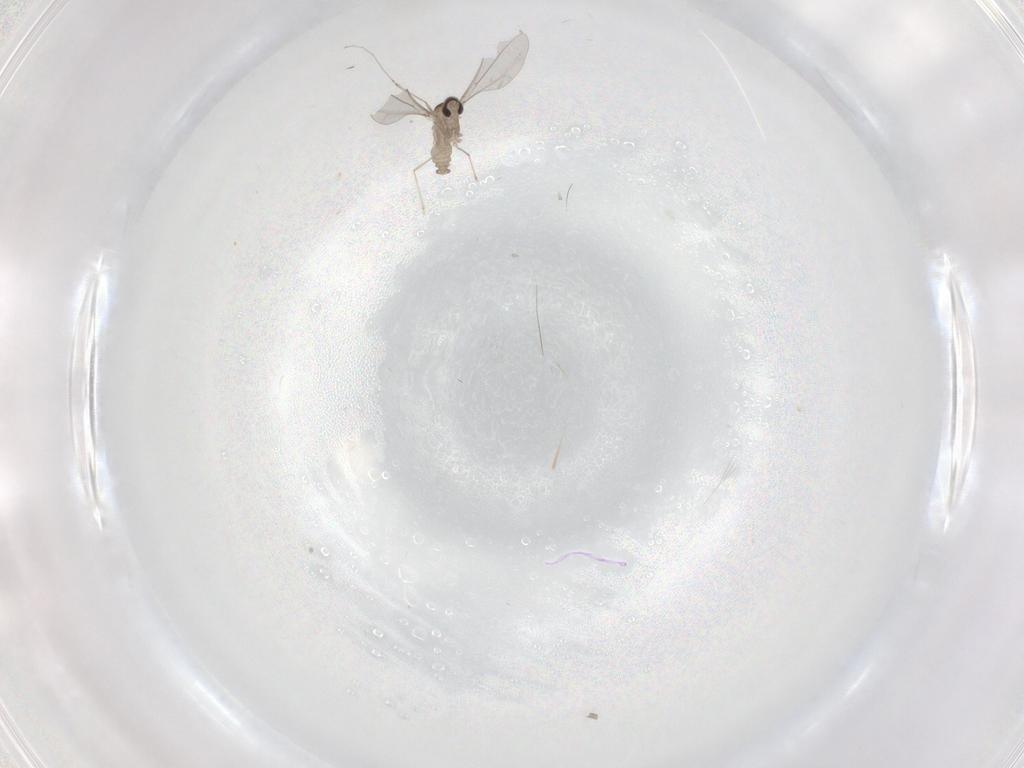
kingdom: Animalia
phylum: Arthropoda
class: Insecta
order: Diptera
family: Cecidomyiidae
